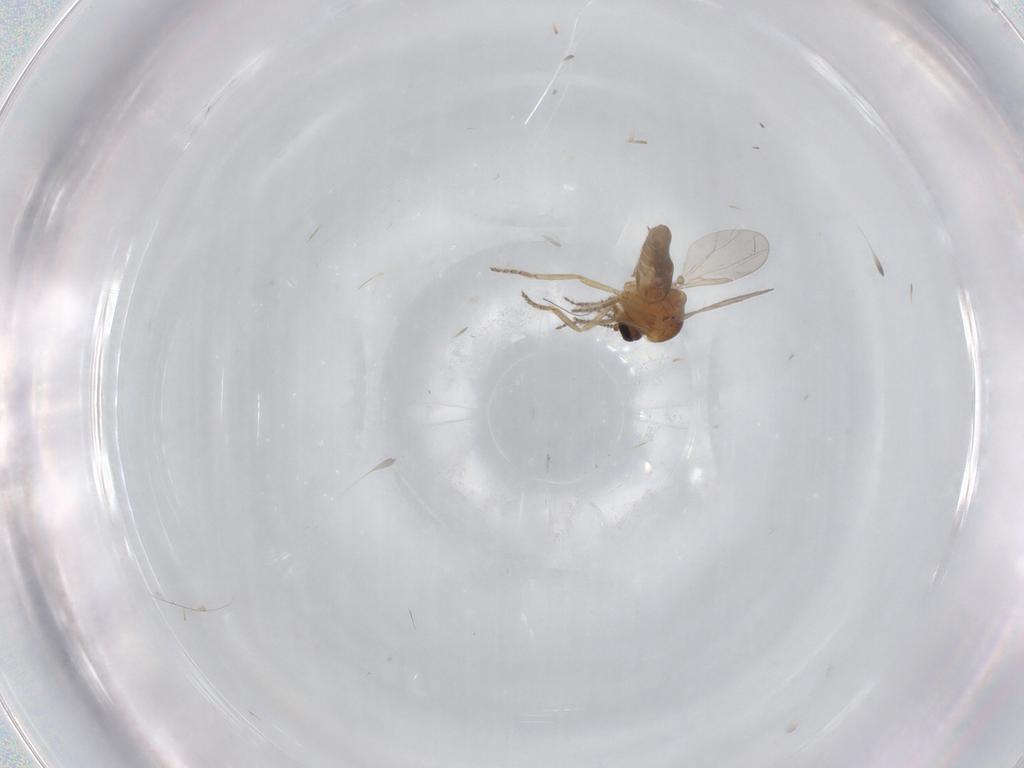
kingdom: Animalia
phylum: Arthropoda
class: Insecta
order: Diptera
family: Ceratopogonidae
